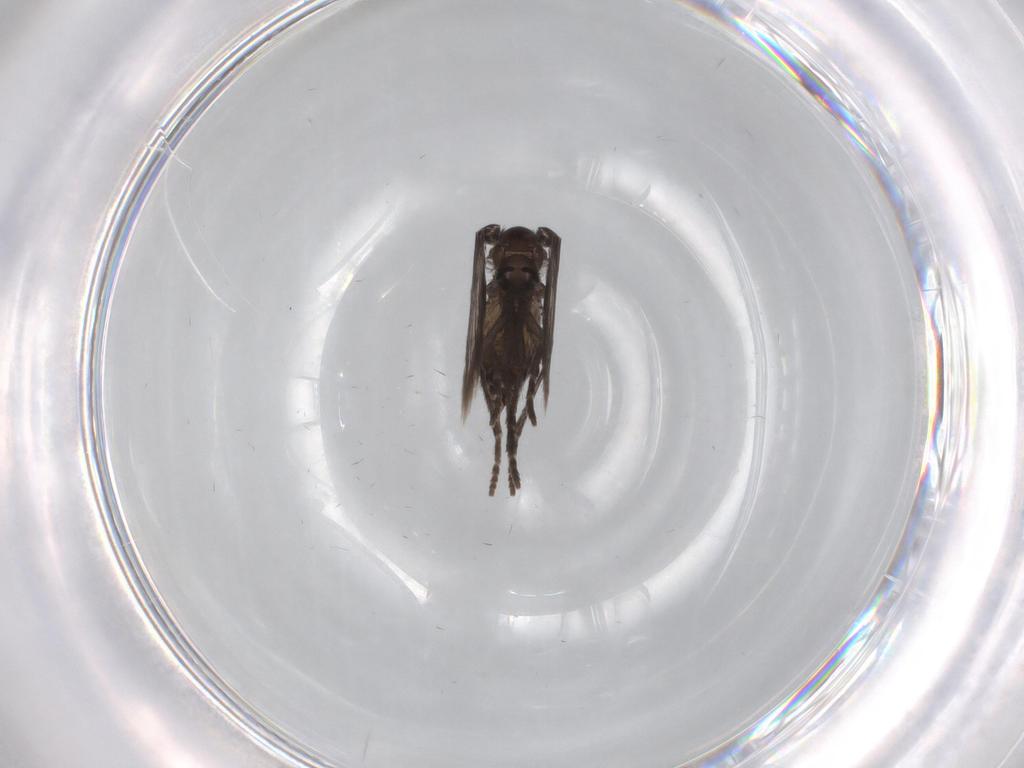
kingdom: Animalia
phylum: Arthropoda
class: Insecta
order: Diptera
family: Psychodidae
